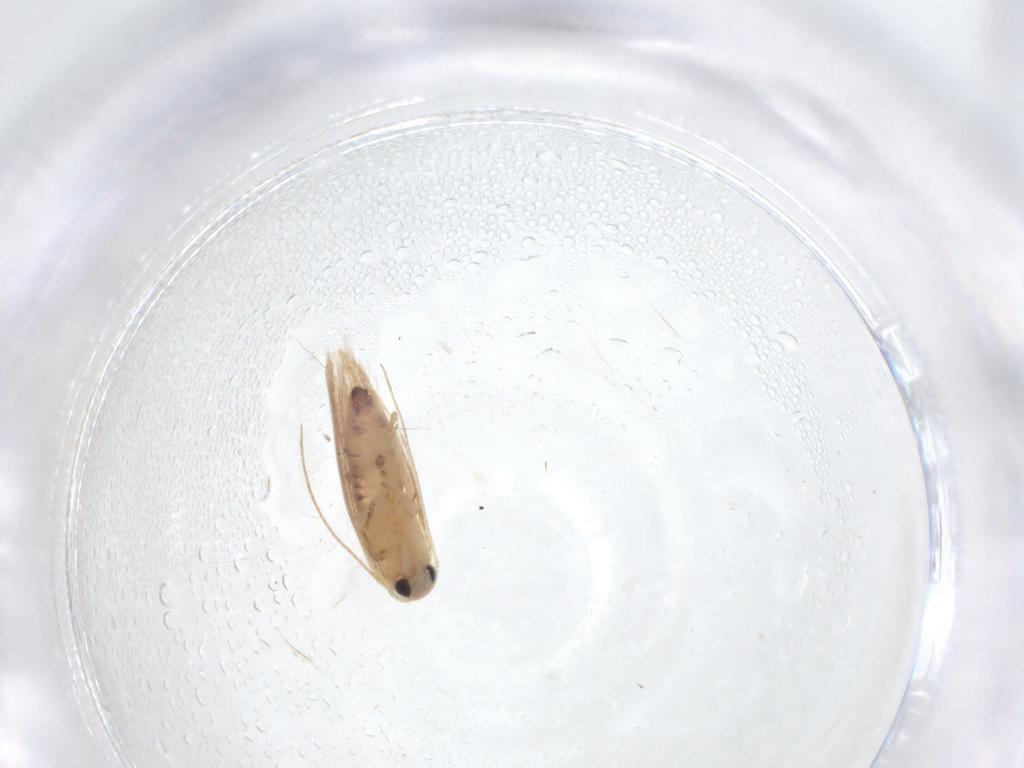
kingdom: Animalia
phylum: Arthropoda
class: Insecta
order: Lepidoptera
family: Bucculatricidae
